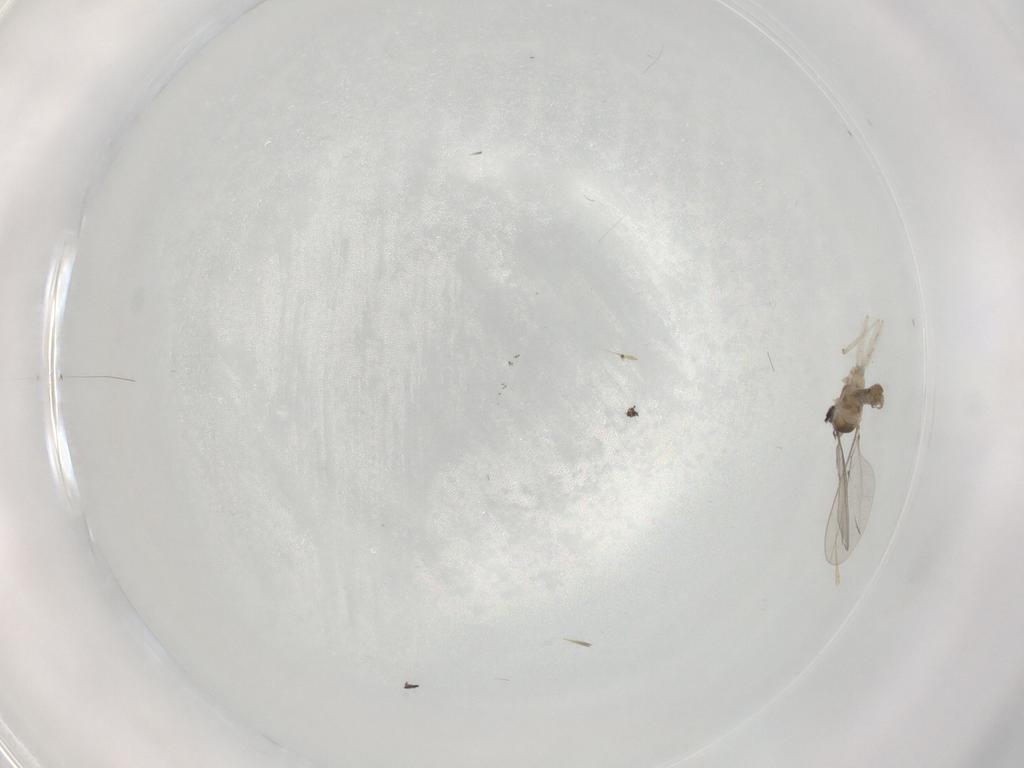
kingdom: Animalia
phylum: Arthropoda
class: Insecta
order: Diptera
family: Cecidomyiidae
